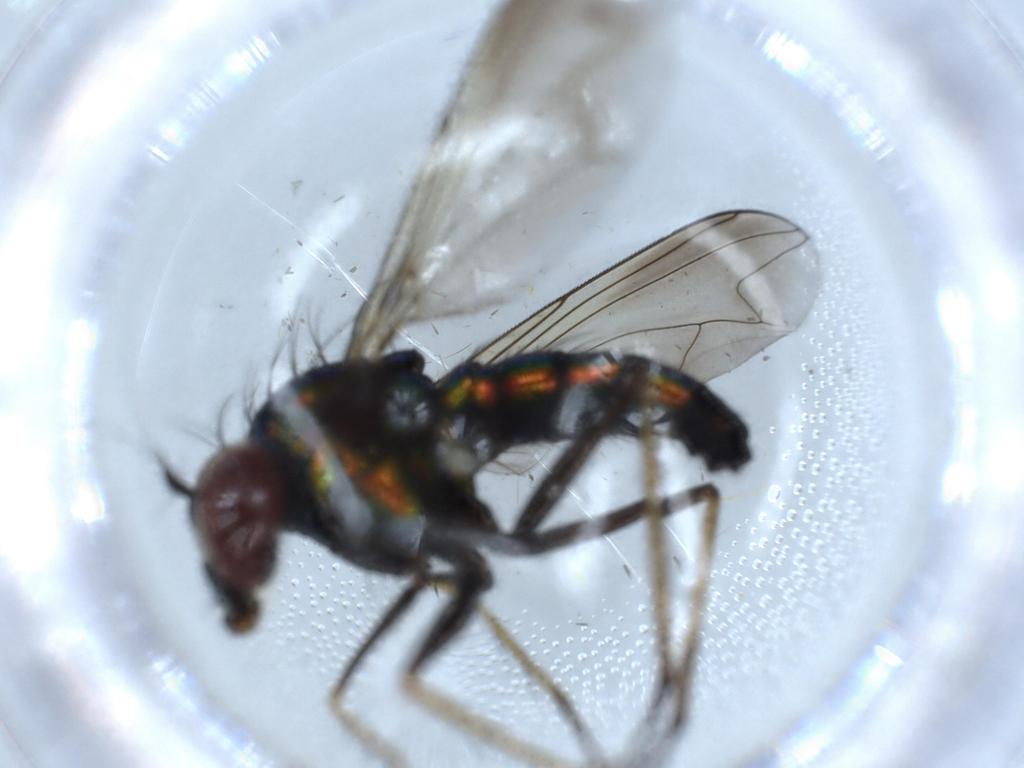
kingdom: Animalia
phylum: Arthropoda
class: Insecta
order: Diptera
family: Dolichopodidae
